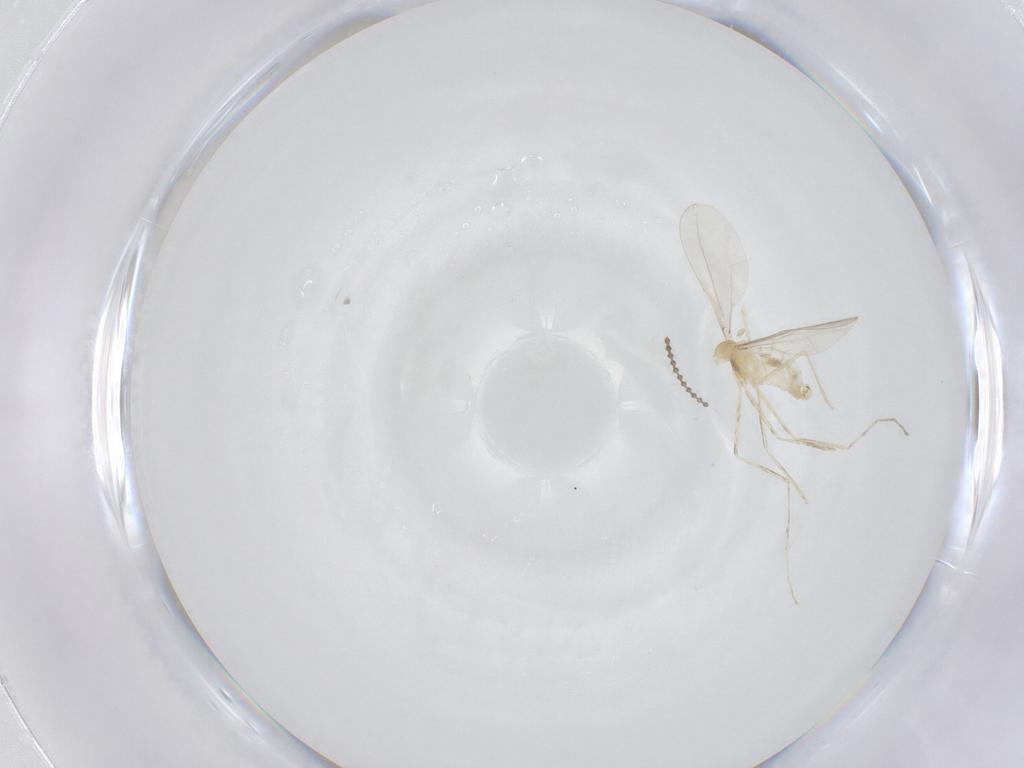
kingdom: Animalia
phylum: Arthropoda
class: Insecta
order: Diptera
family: Cecidomyiidae
